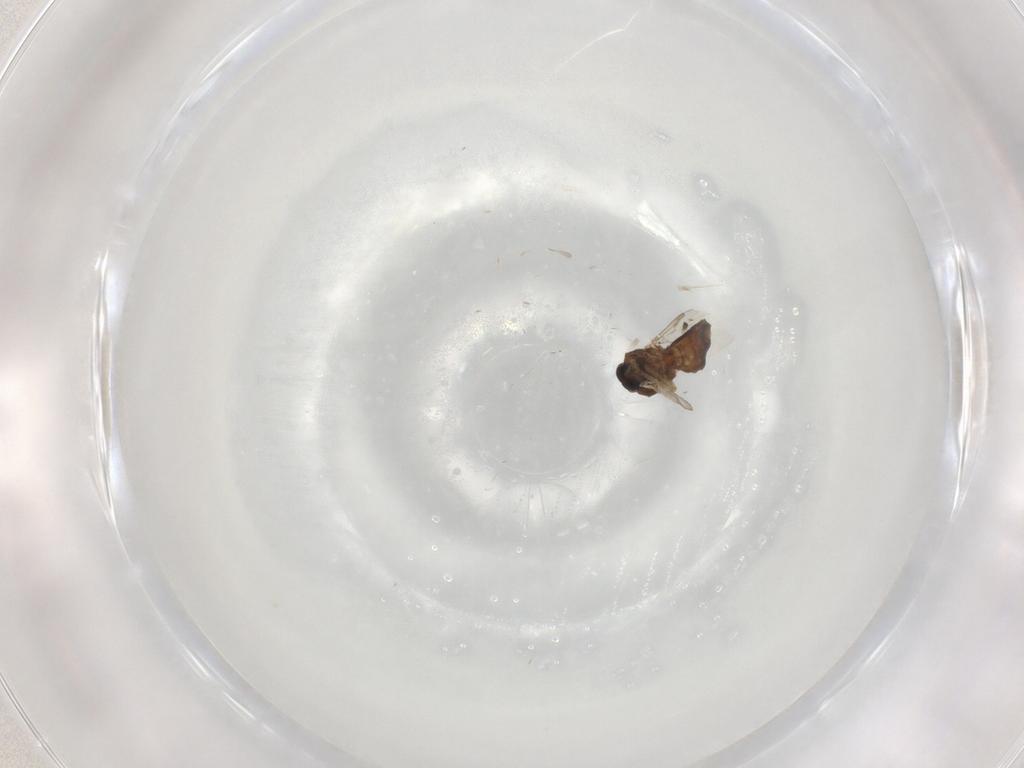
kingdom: Animalia
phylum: Arthropoda
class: Insecta
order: Diptera
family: Ceratopogonidae
